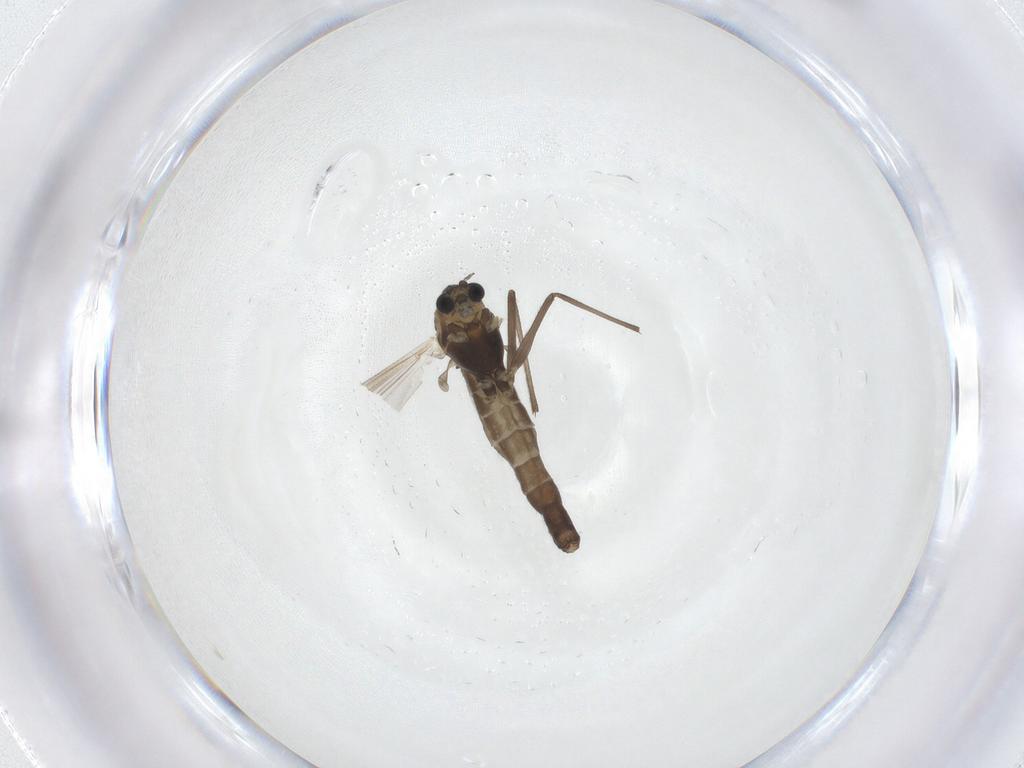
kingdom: Animalia
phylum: Arthropoda
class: Insecta
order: Diptera
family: Chironomidae
